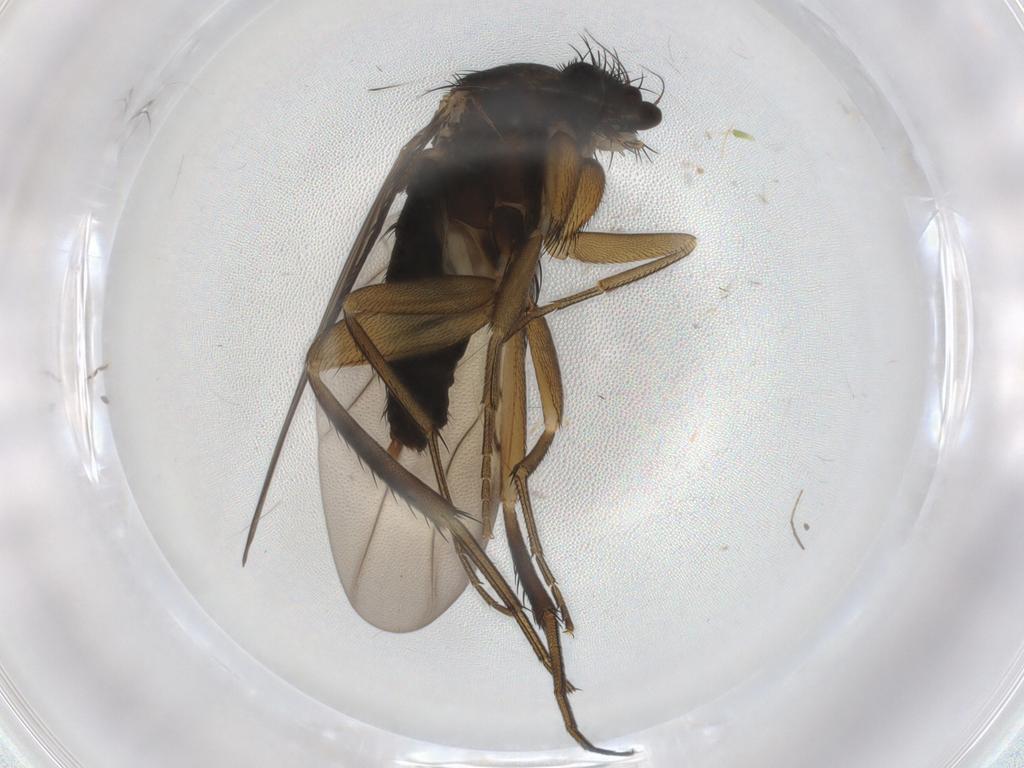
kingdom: Animalia
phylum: Arthropoda
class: Insecta
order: Diptera
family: Phoridae
